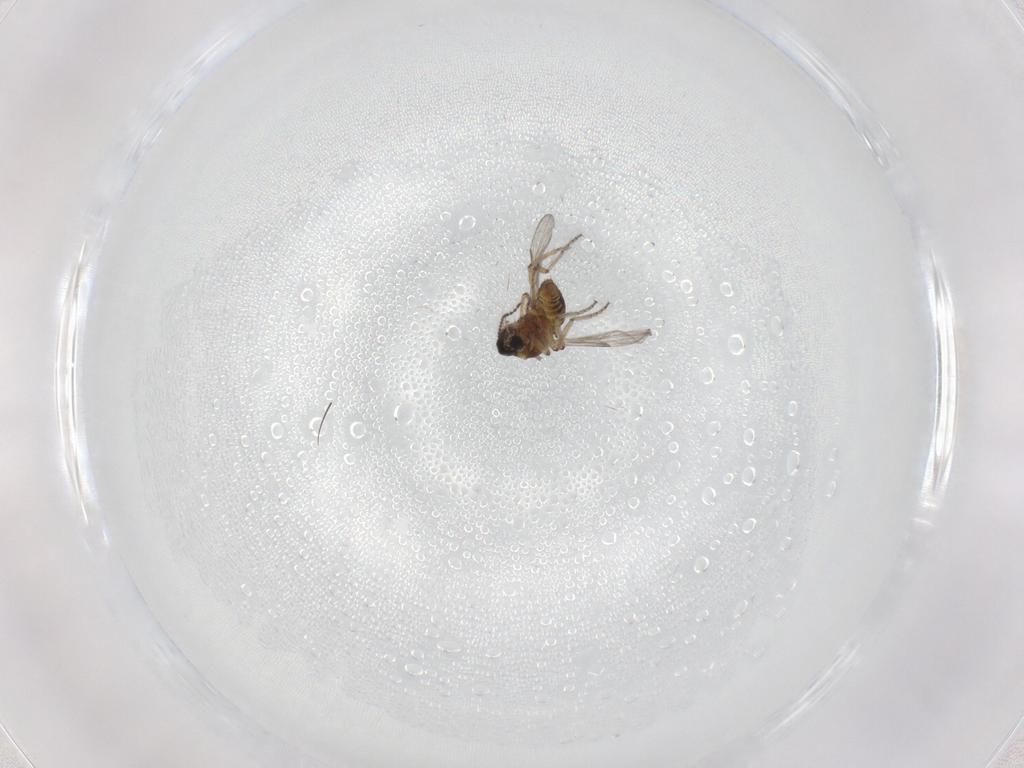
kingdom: Animalia
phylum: Arthropoda
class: Insecta
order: Diptera
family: Ceratopogonidae
